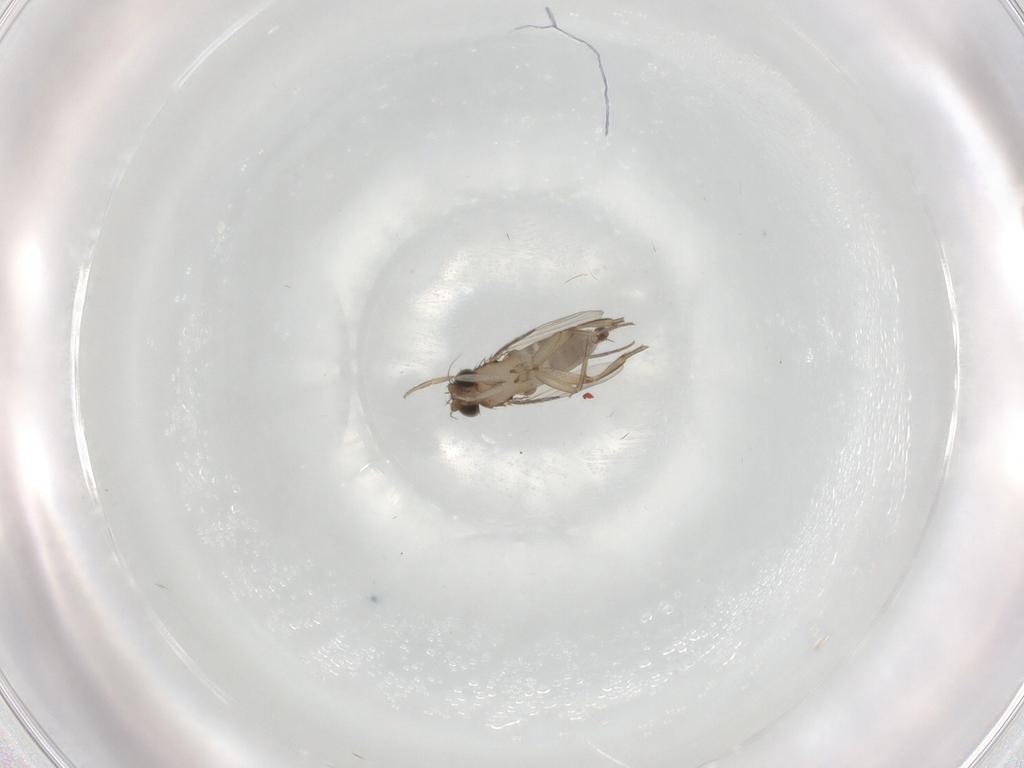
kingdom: Animalia
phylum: Arthropoda
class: Insecta
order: Diptera
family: Phoridae
